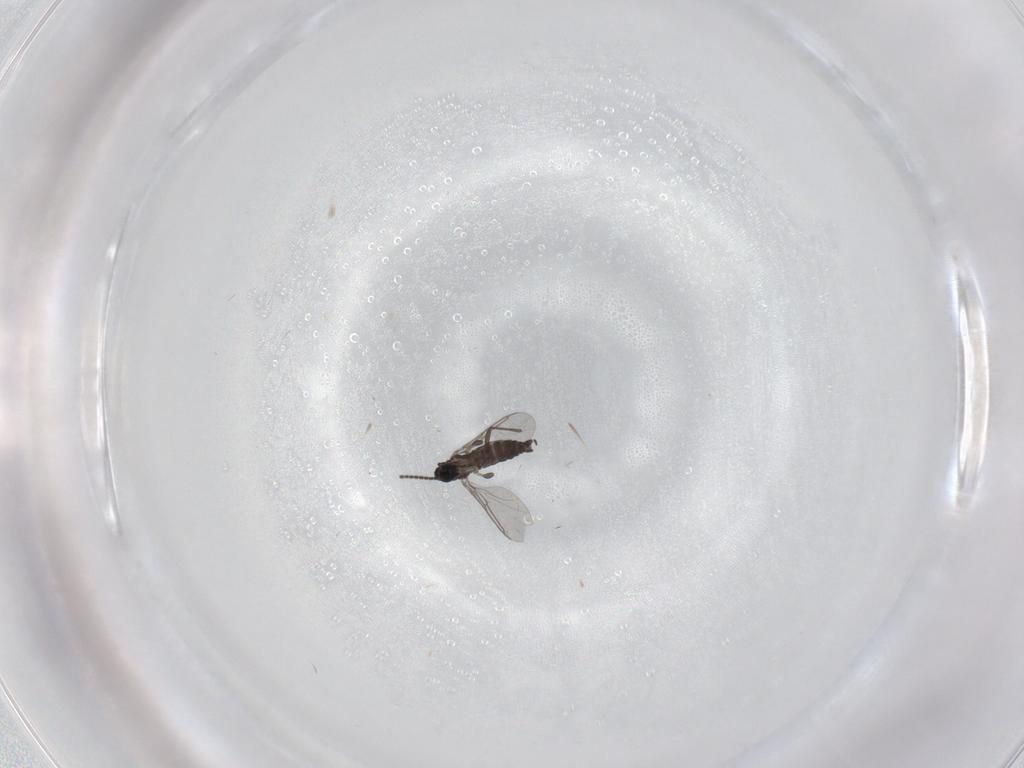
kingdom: Animalia
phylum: Arthropoda
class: Insecta
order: Diptera
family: Sciaridae
